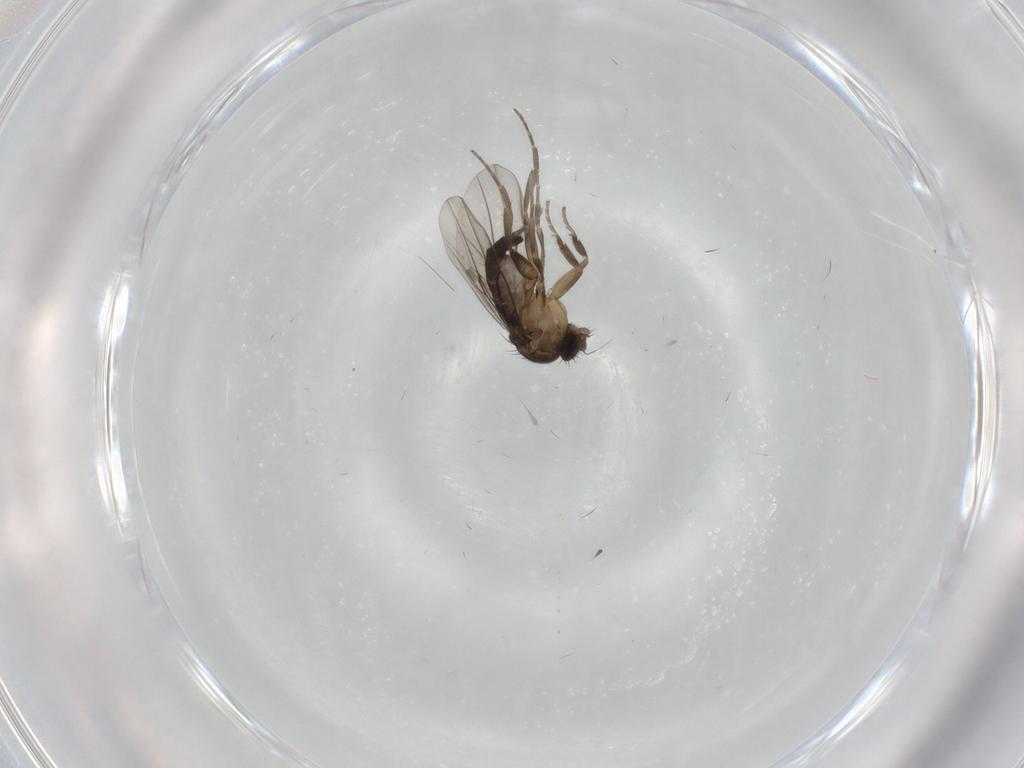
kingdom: Animalia
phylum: Arthropoda
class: Insecta
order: Diptera
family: Phoridae
